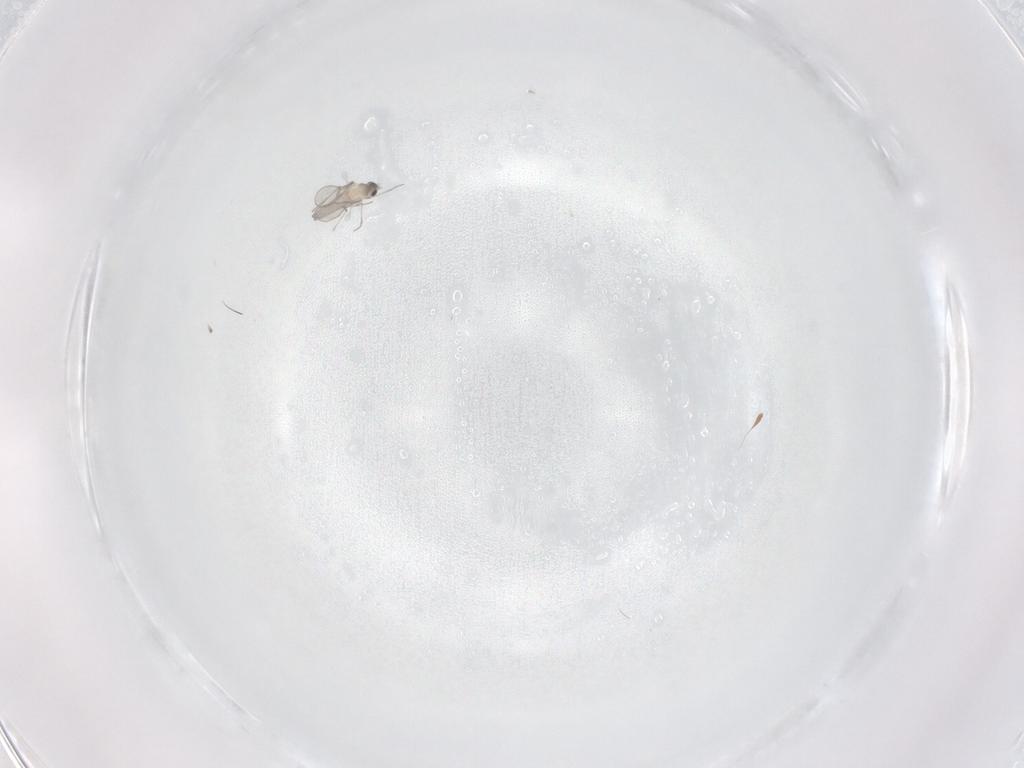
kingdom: Animalia
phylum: Arthropoda
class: Insecta
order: Diptera
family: Cecidomyiidae
